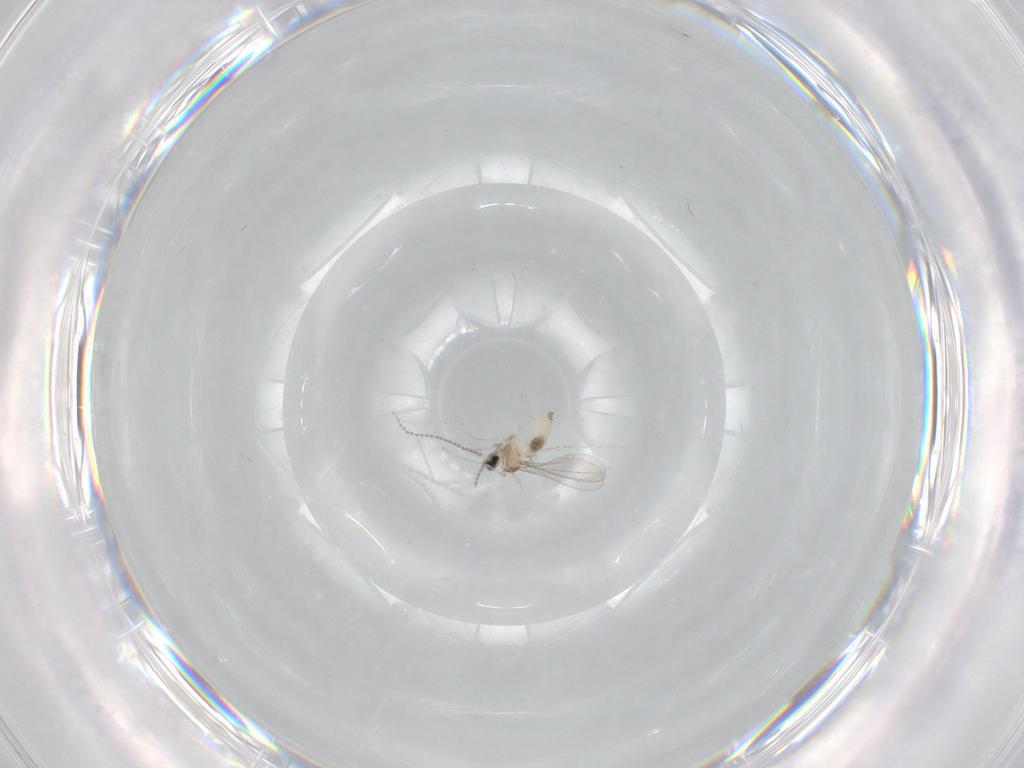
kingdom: Animalia
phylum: Arthropoda
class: Insecta
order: Diptera
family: Cecidomyiidae
